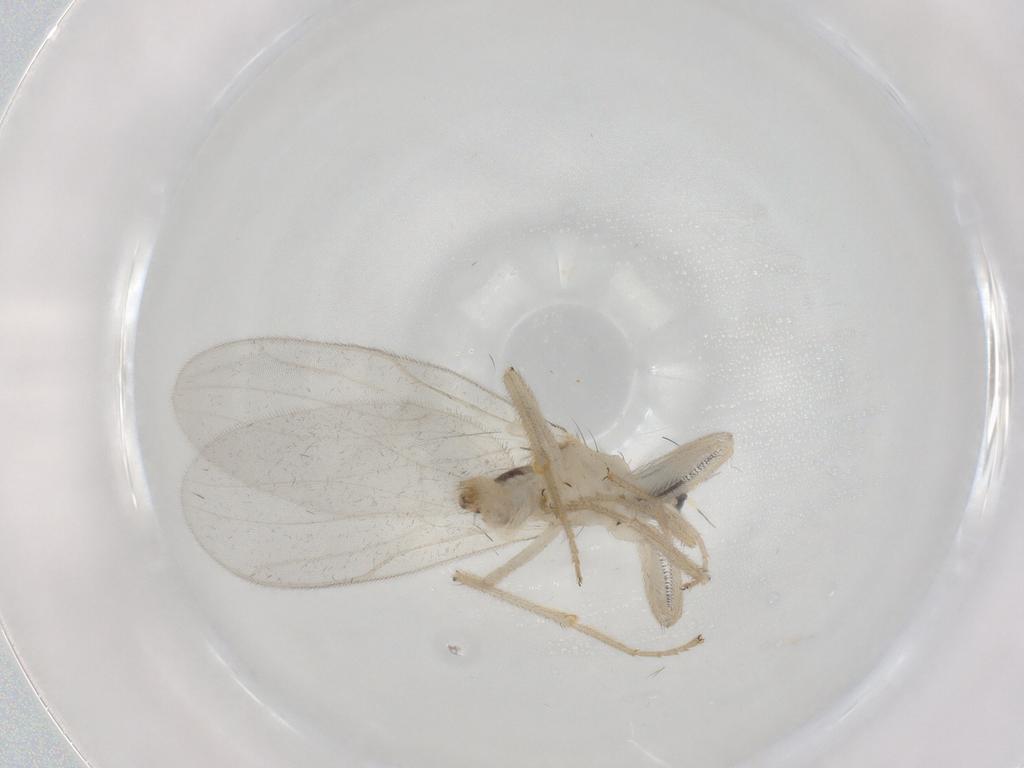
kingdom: Animalia
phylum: Arthropoda
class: Insecta
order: Diptera
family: Hybotidae
